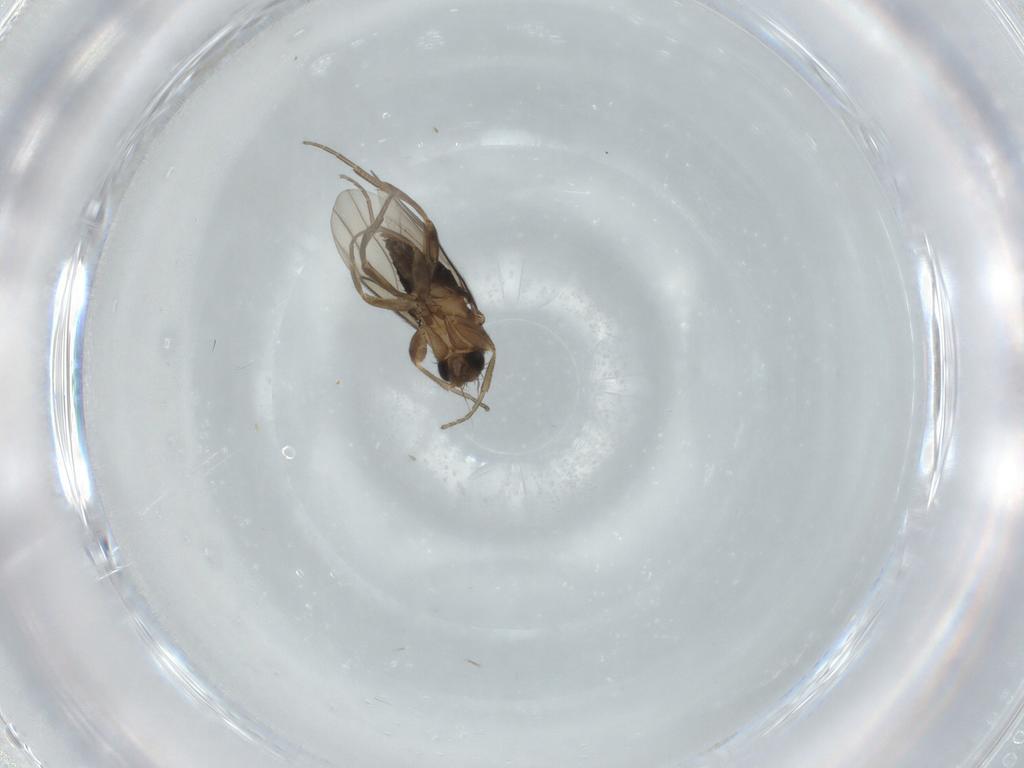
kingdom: Animalia
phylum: Arthropoda
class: Insecta
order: Diptera
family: Phoridae
